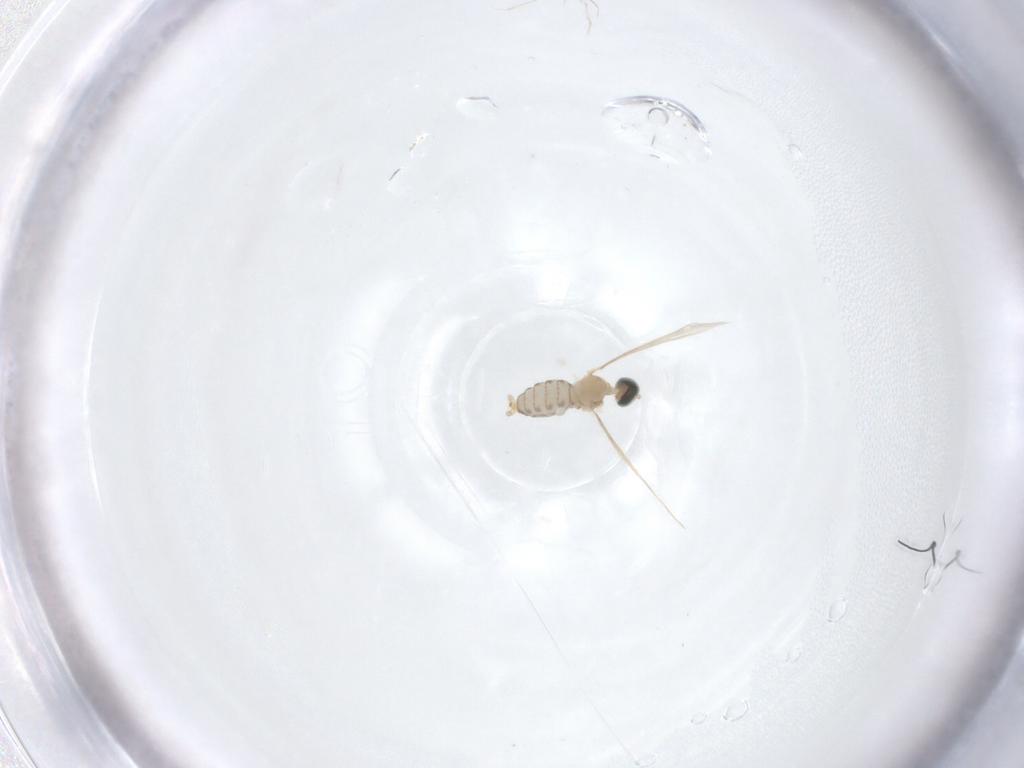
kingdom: Animalia
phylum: Arthropoda
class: Insecta
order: Diptera
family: Cecidomyiidae
